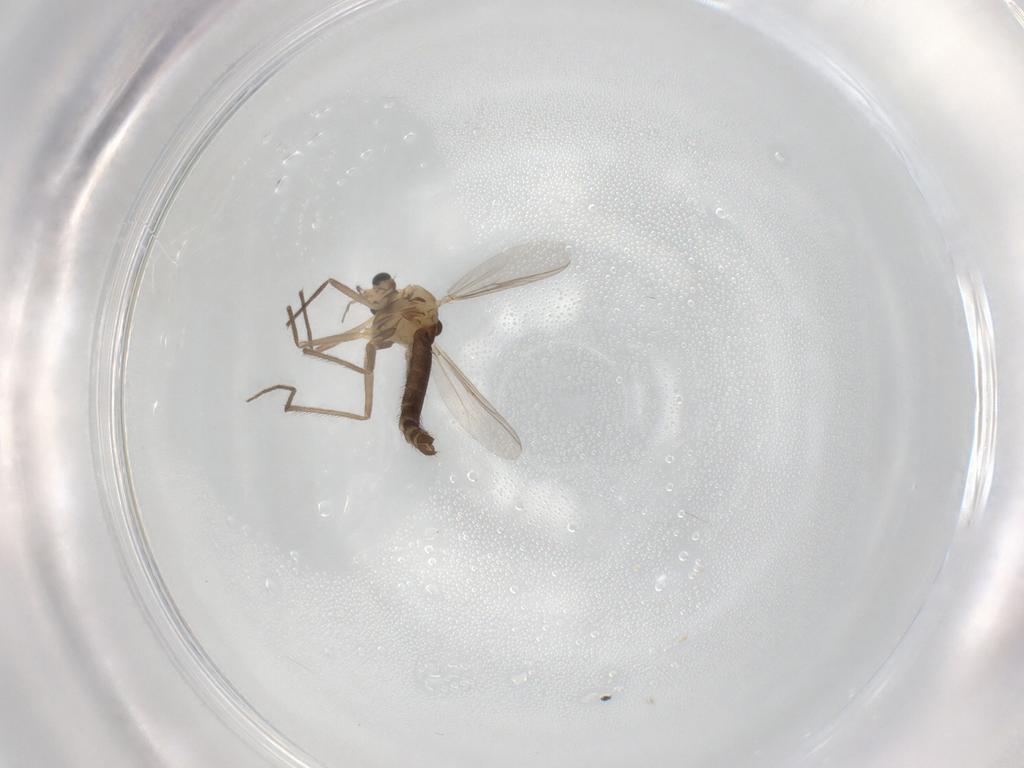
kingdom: Animalia
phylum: Arthropoda
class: Insecta
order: Diptera
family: Chironomidae
